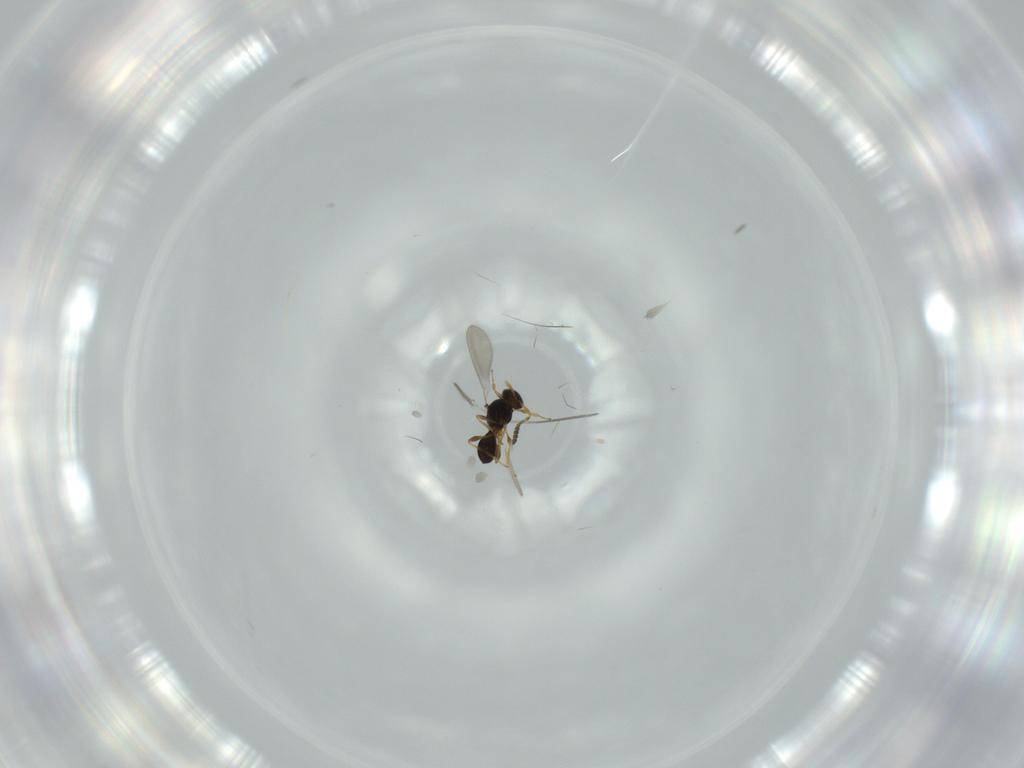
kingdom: Animalia
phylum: Arthropoda
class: Insecta
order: Hymenoptera
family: Platygastridae
